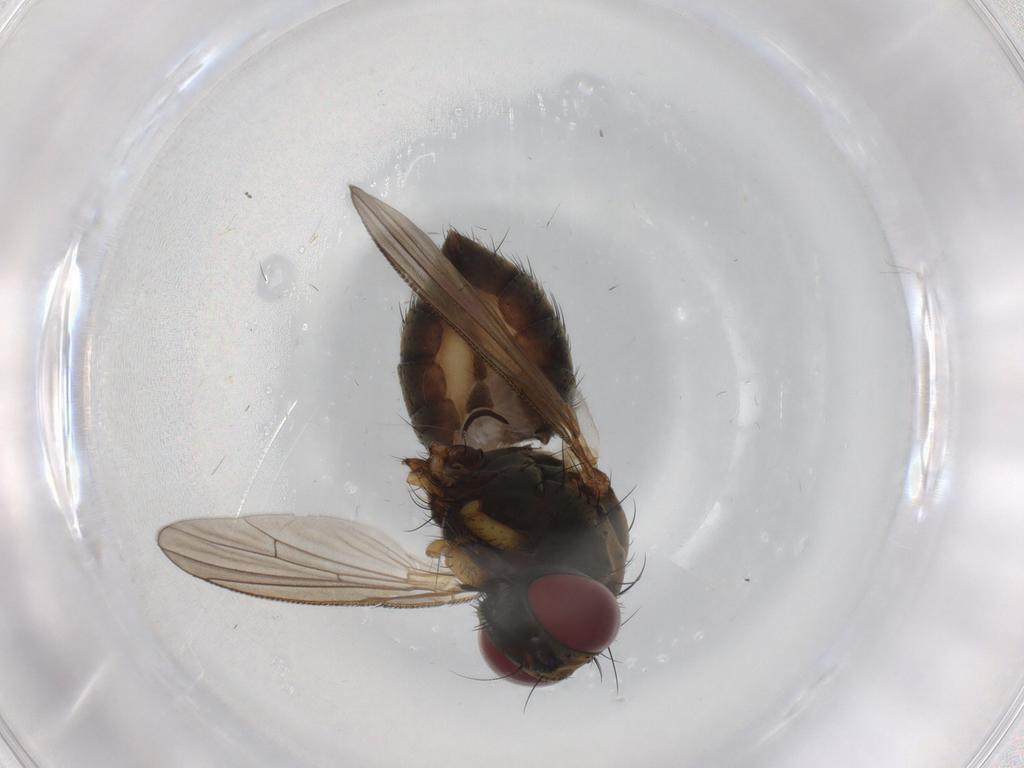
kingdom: Animalia
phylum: Arthropoda
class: Insecta
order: Diptera
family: Muscidae
